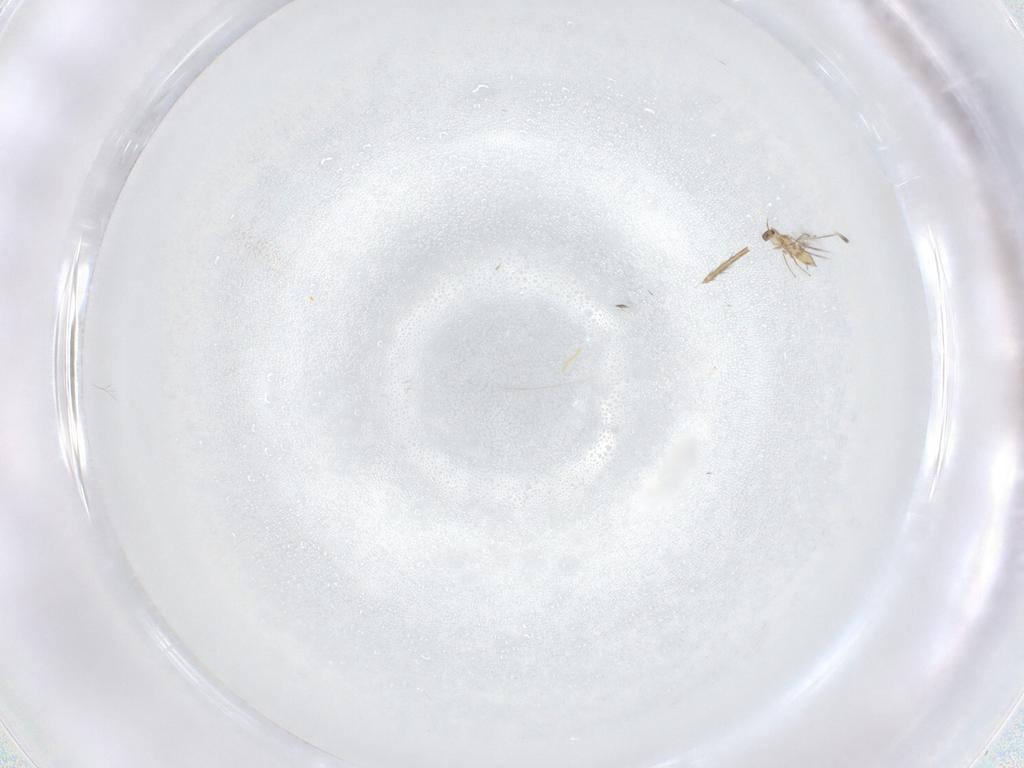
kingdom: Animalia
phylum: Arthropoda
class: Insecta
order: Hymenoptera
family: Mymaridae
